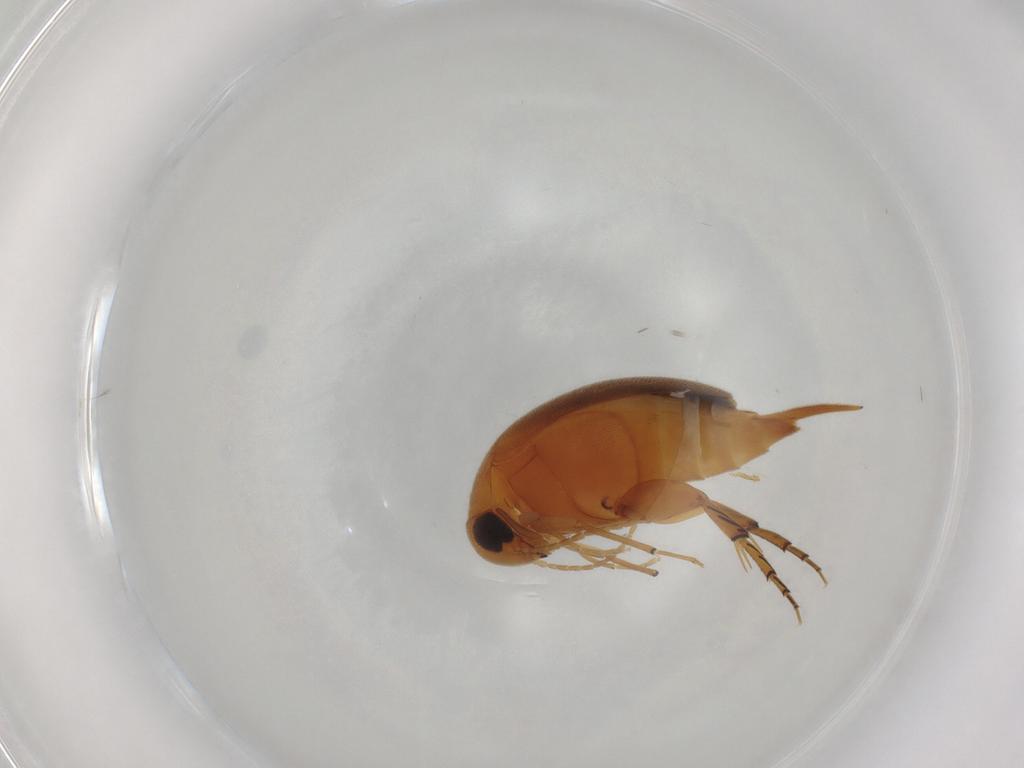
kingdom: Animalia
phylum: Arthropoda
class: Insecta
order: Coleoptera
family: Mordellidae
